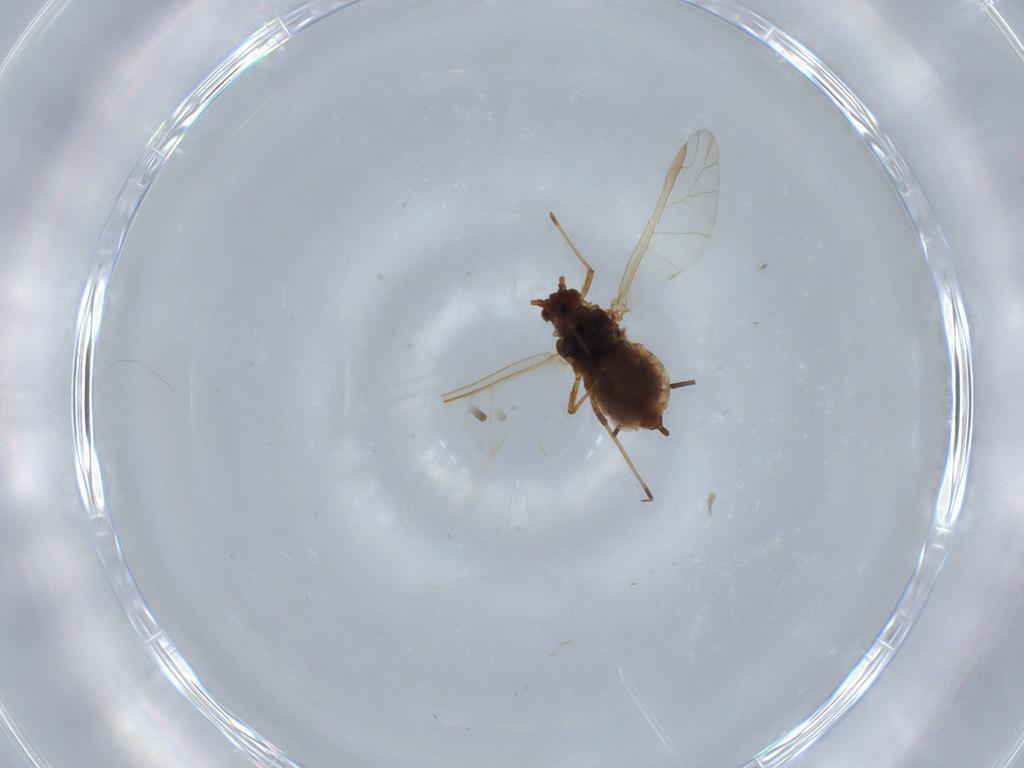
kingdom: Animalia
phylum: Arthropoda
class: Insecta
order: Hemiptera
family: Aphididae
